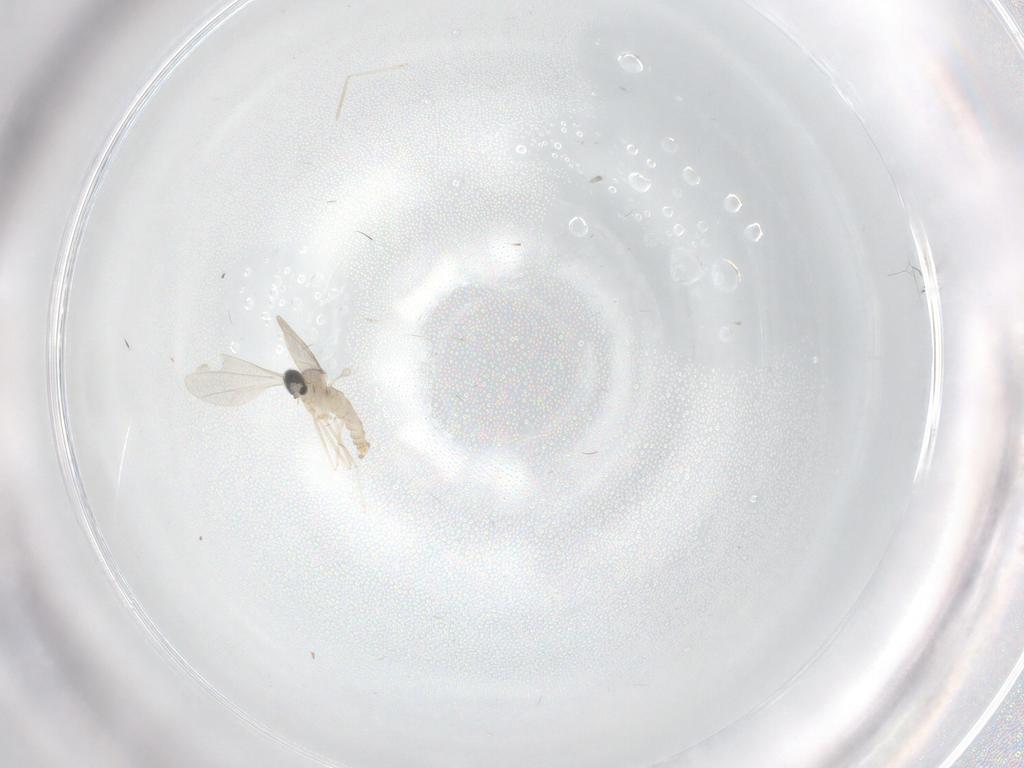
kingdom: Animalia
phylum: Arthropoda
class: Insecta
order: Diptera
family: Cecidomyiidae
